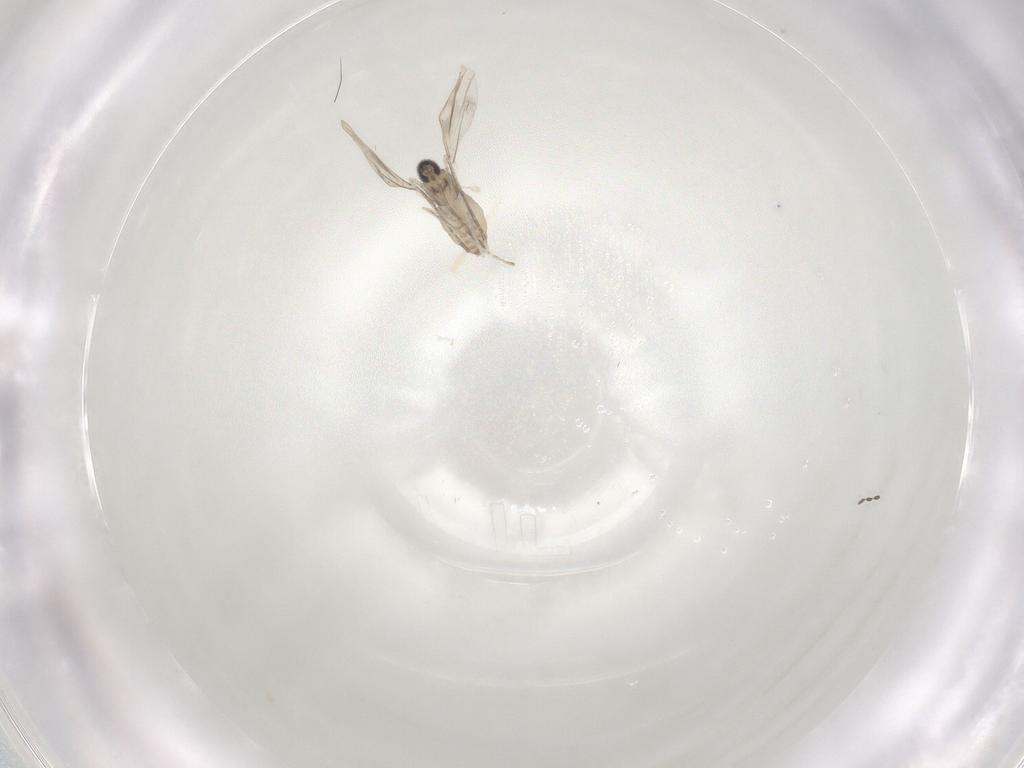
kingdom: Animalia
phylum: Arthropoda
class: Insecta
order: Diptera
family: Cecidomyiidae
